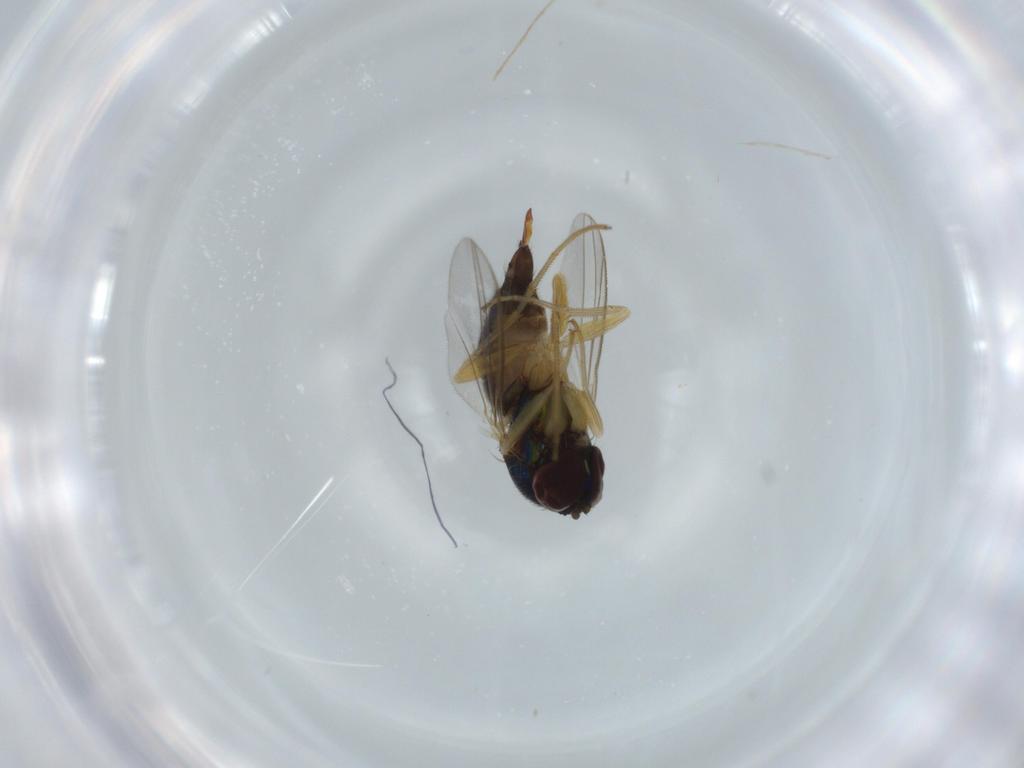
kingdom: Animalia
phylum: Arthropoda
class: Insecta
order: Diptera
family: Dolichopodidae
